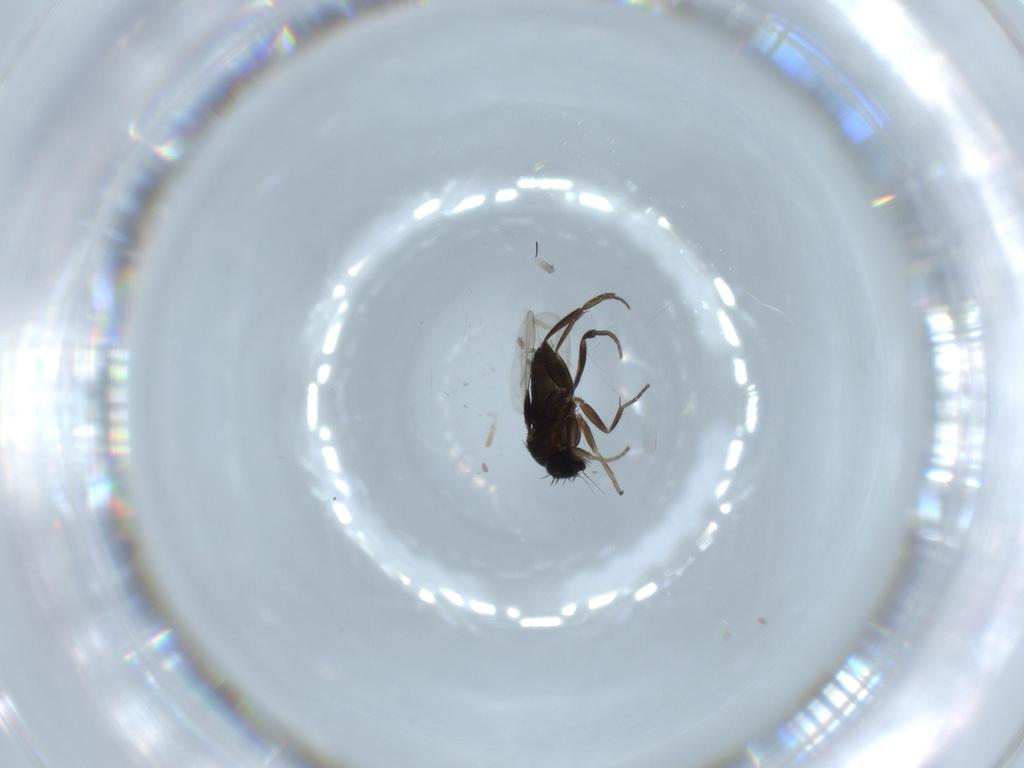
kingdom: Animalia
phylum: Arthropoda
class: Insecta
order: Diptera
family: Phoridae
